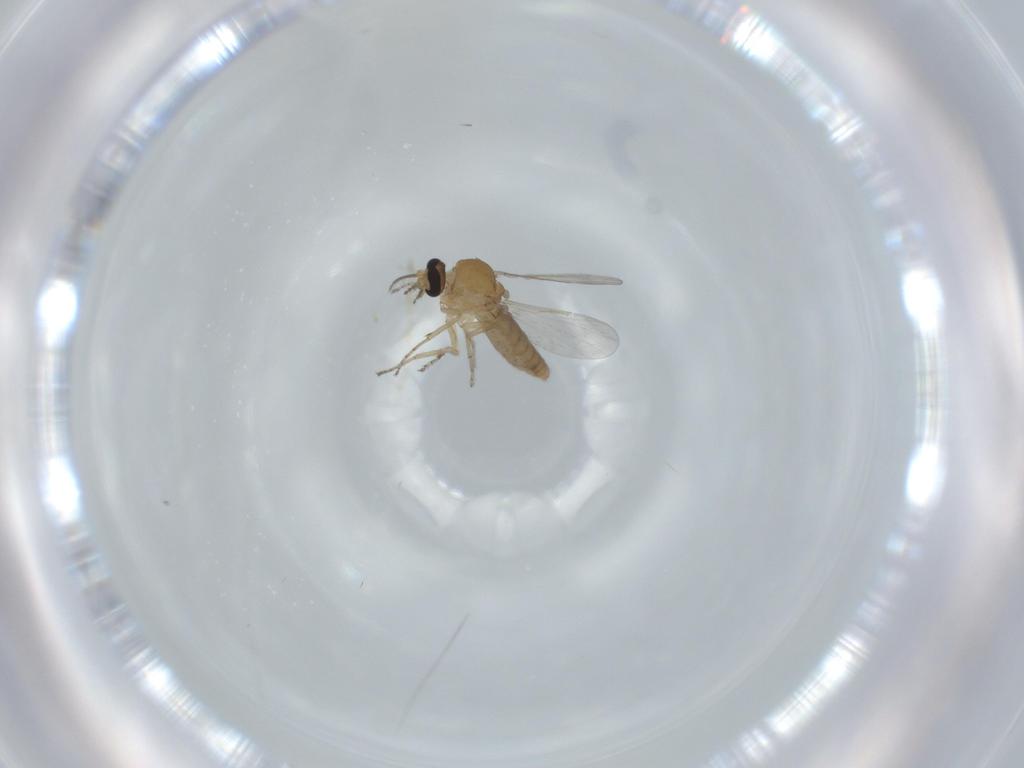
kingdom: Animalia
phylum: Arthropoda
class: Insecta
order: Diptera
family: Ceratopogonidae
